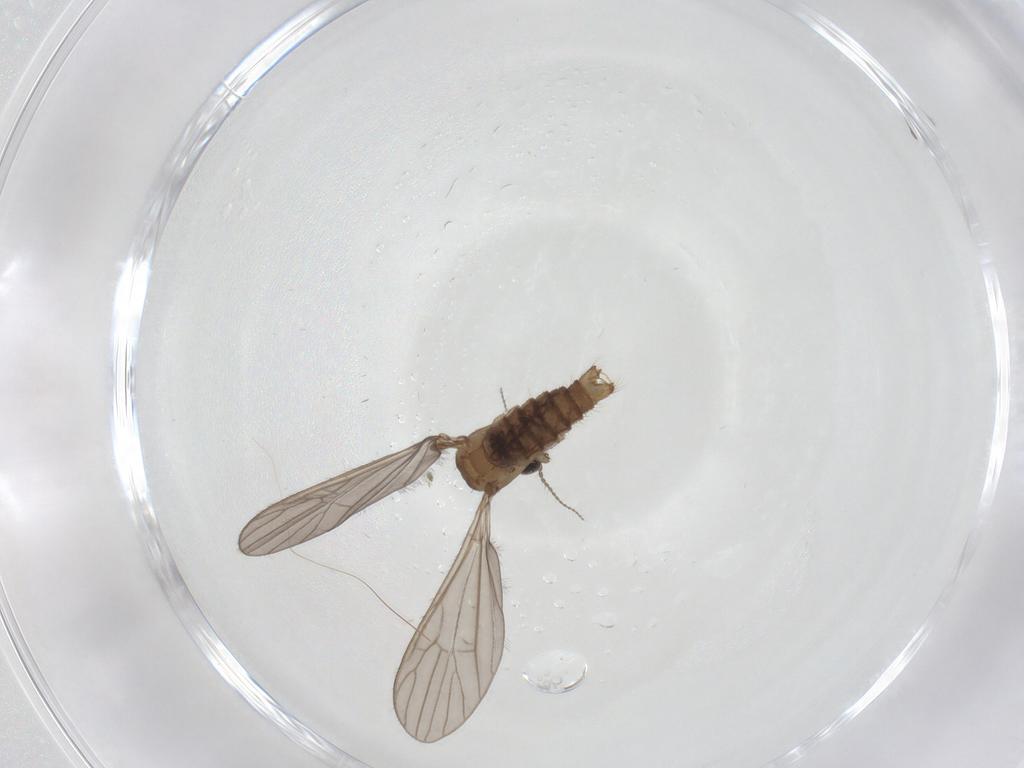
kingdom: Animalia
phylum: Arthropoda
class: Insecta
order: Diptera
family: Limoniidae
